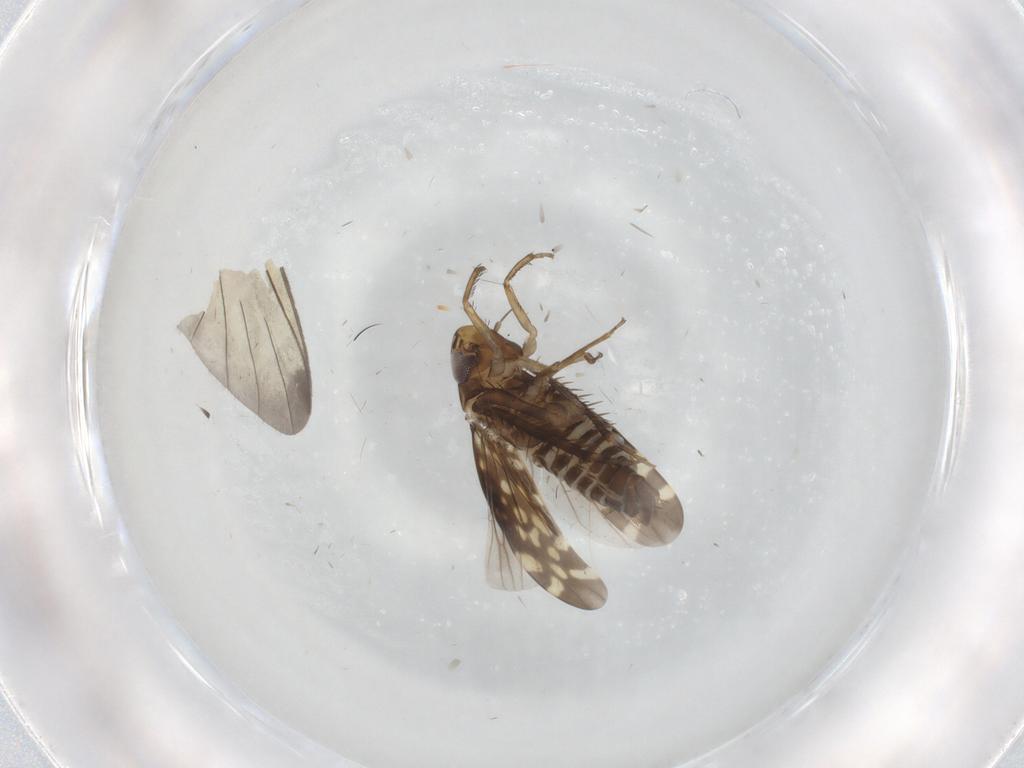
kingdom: Animalia
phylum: Arthropoda
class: Insecta
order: Hemiptera
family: Cicadellidae
